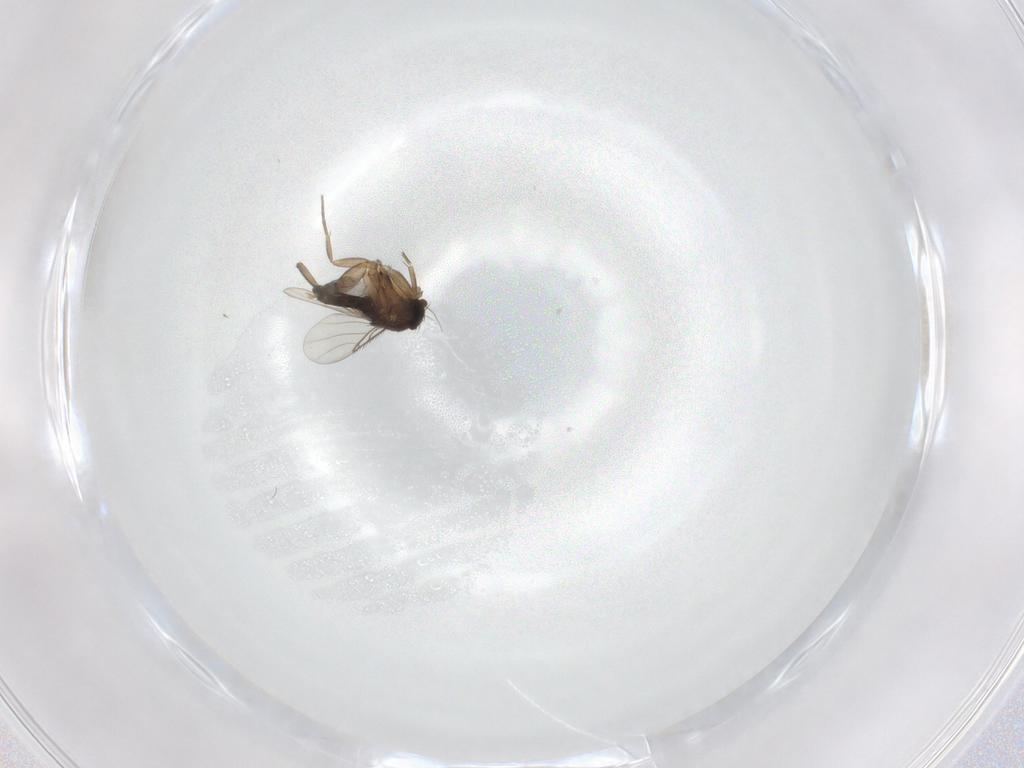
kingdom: Animalia
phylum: Arthropoda
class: Insecta
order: Diptera
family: Phoridae
